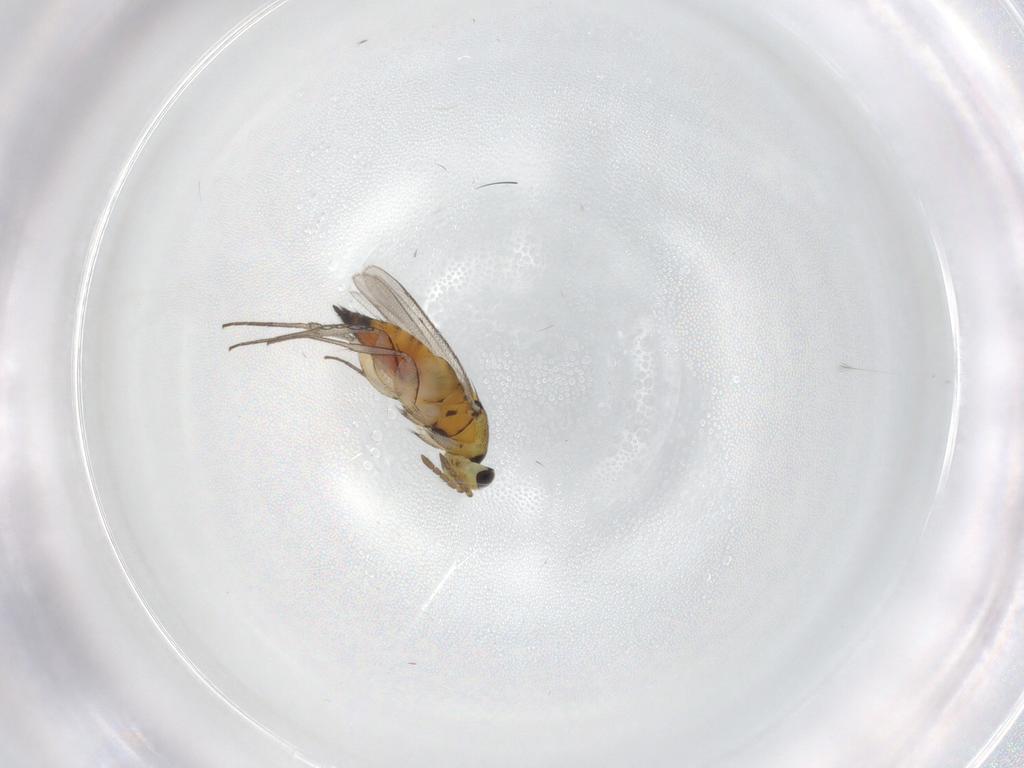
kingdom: Animalia
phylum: Arthropoda
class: Insecta
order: Hymenoptera
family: Eulophidae
